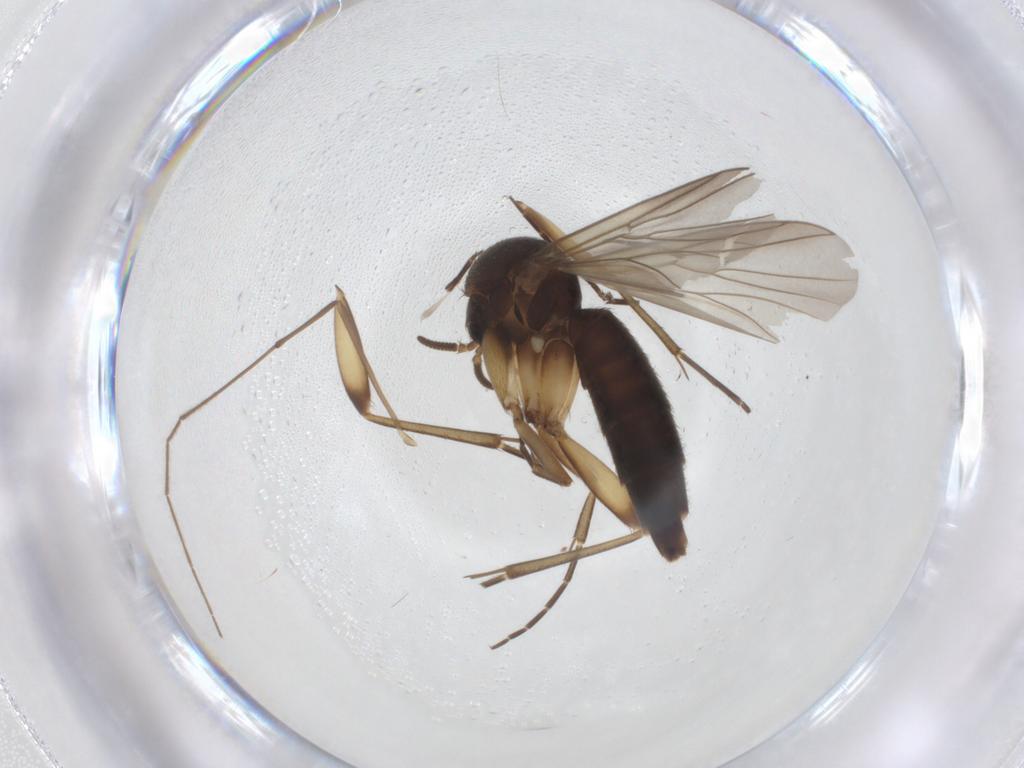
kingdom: Animalia
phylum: Arthropoda
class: Insecta
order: Diptera
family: Mycetophilidae
